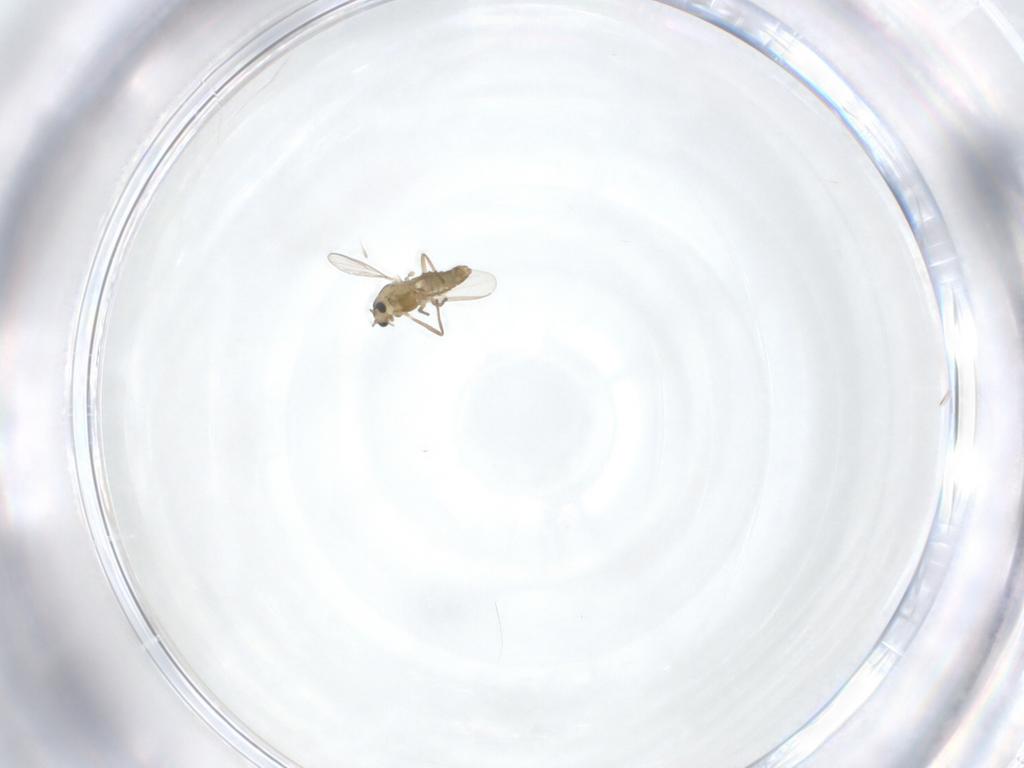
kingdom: Animalia
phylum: Arthropoda
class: Insecta
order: Diptera
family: Chironomidae
